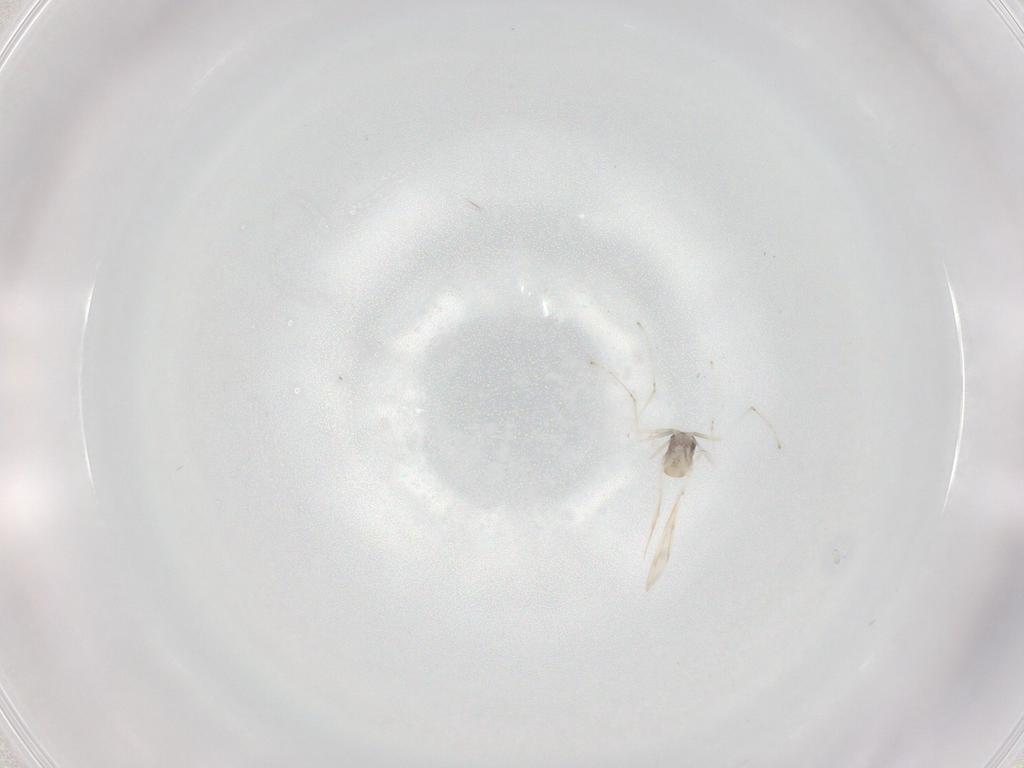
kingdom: Animalia
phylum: Arthropoda
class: Insecta
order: Diptera
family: Cecidomyiidae
